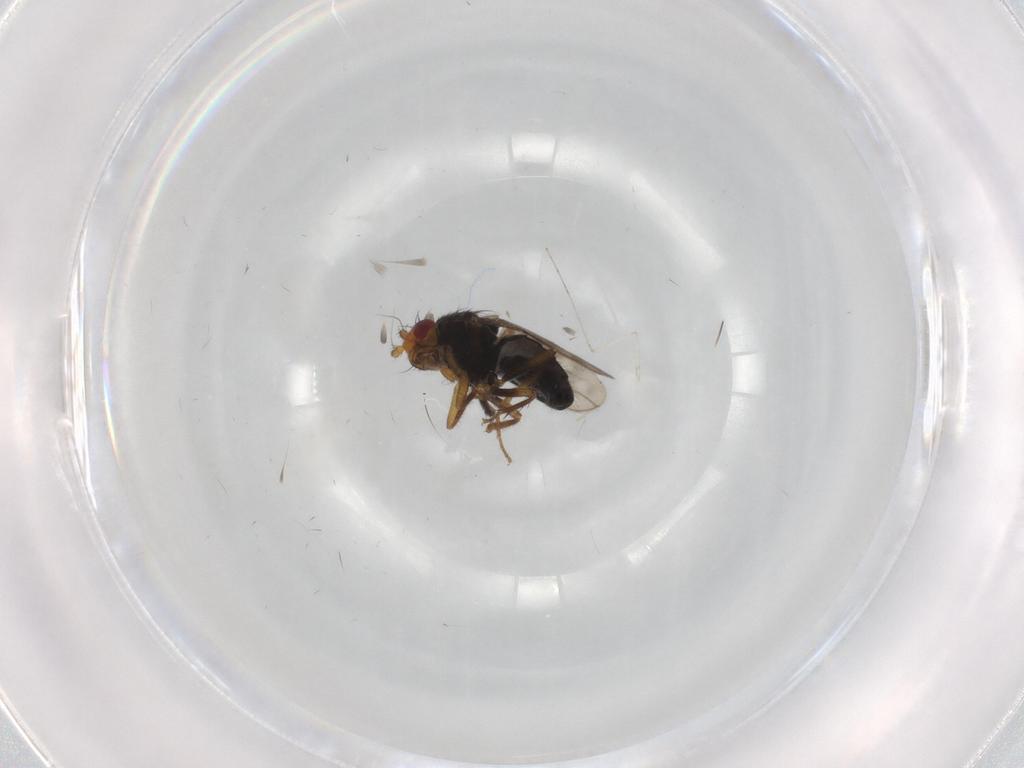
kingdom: Animalia
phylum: Arthropoda
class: Insecta
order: Diptera
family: Sphaeroceridae
